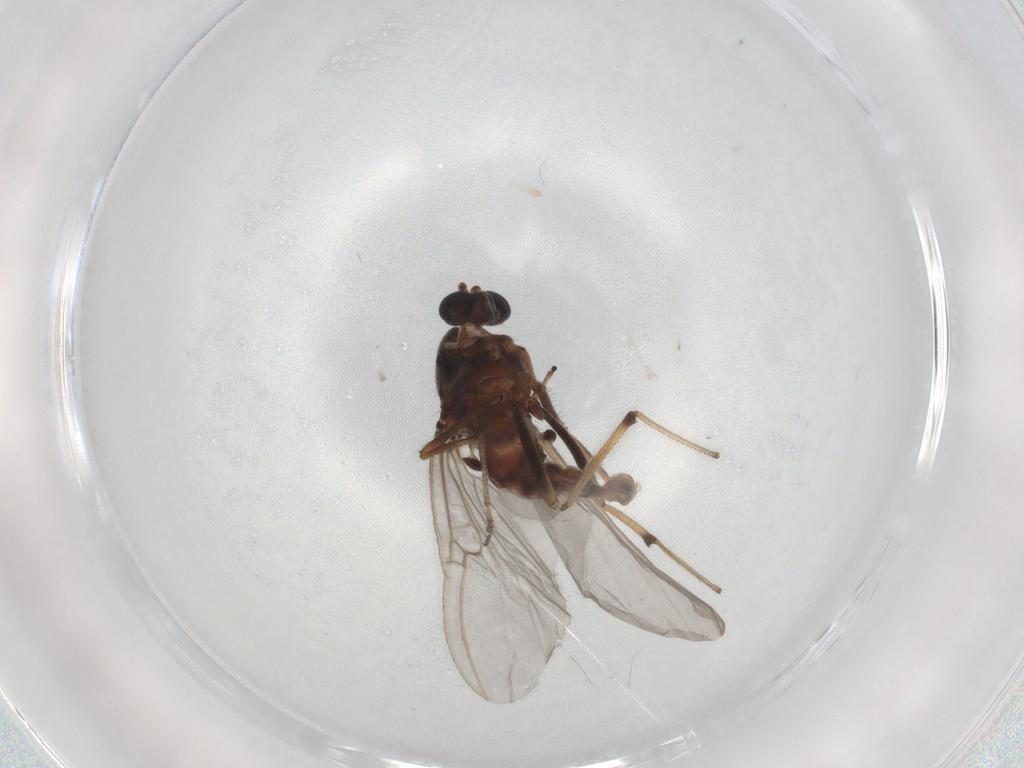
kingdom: Animalia
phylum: Arthropoda
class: Insecta
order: Diptera
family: Ceratopogonidae
